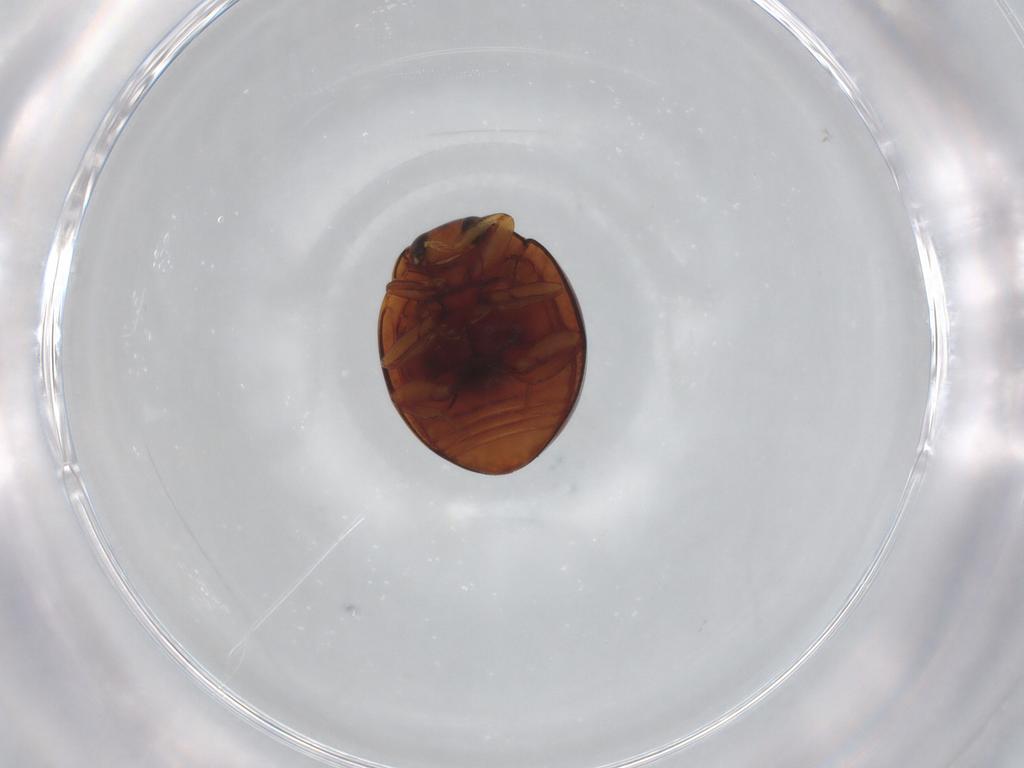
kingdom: Animalia
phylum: Arthropoda
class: Insecta
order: Coleoptera
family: Coccinellidae
